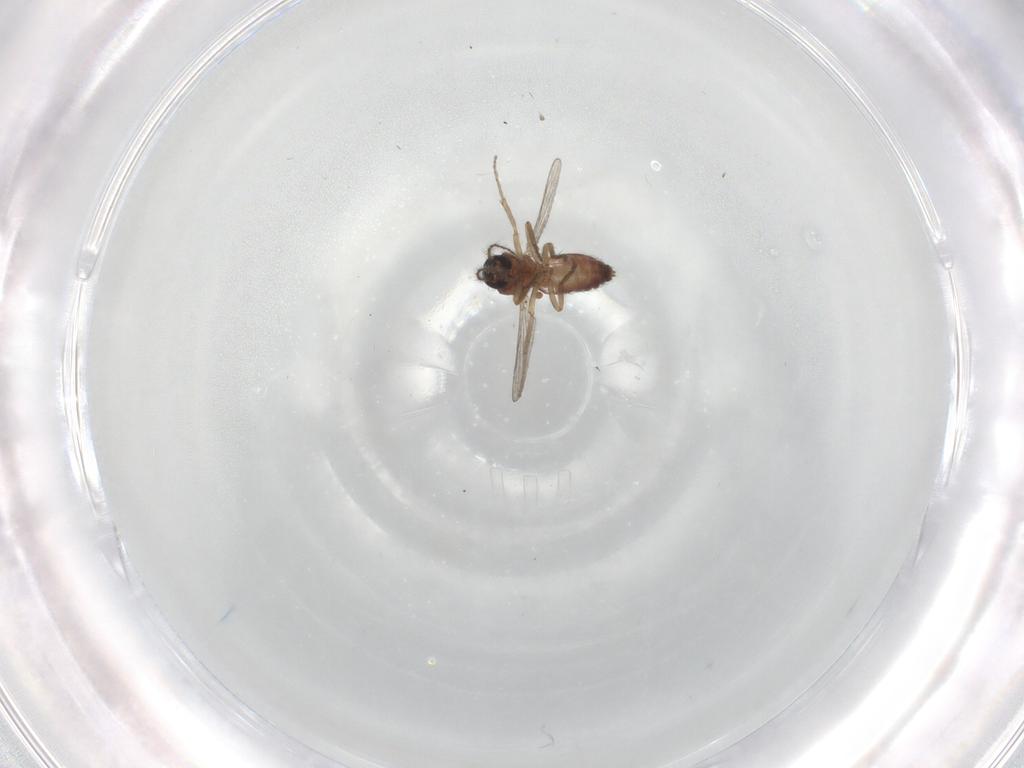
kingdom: Animalia
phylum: Arthropoda
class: Insecta
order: Diptera
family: Ceratopogonidae
